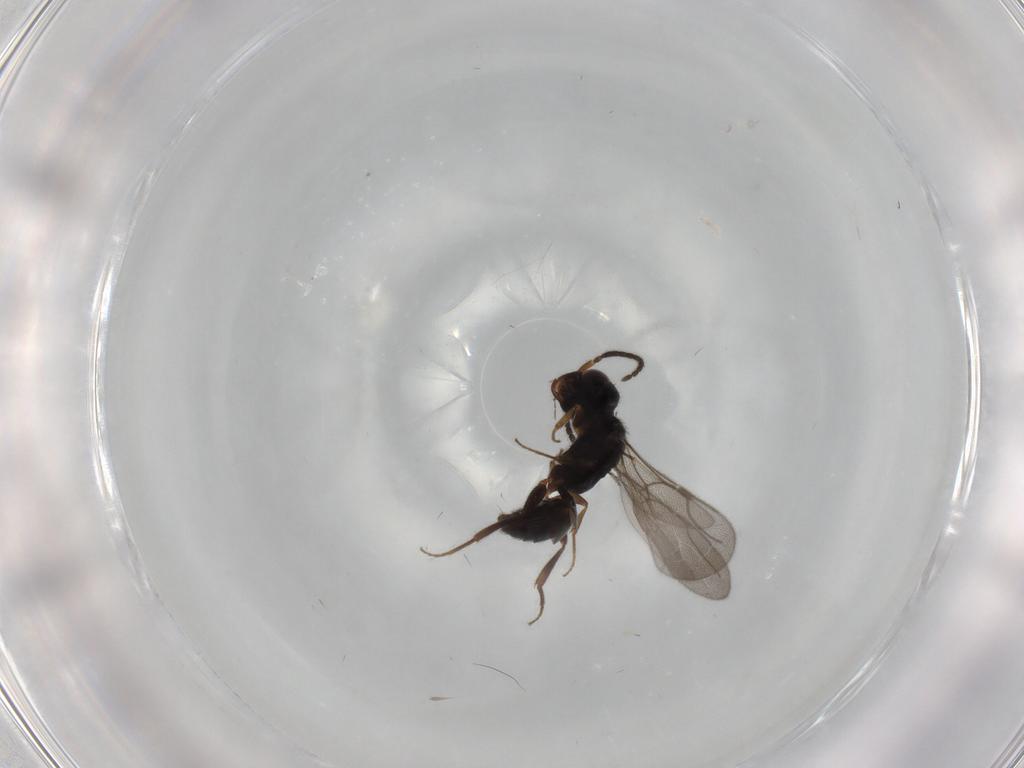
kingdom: Animalia
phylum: Arthropoda
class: Insecta
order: Hymenoptera
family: Bethylidae
